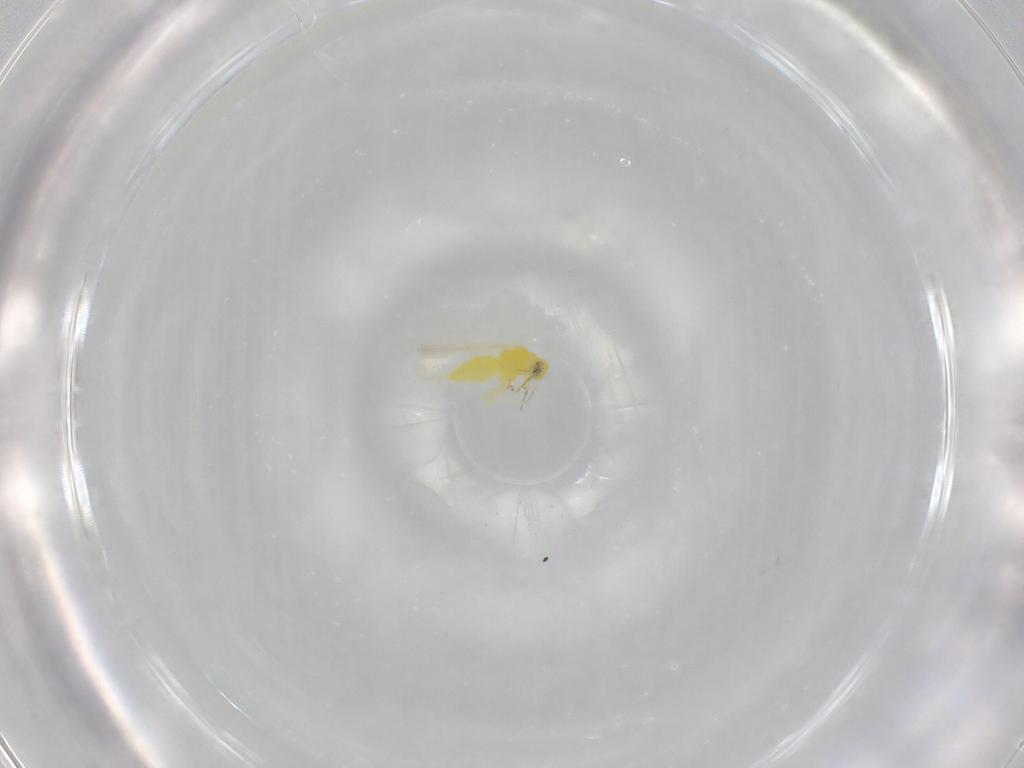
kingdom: Animalia
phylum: Arthropoda
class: Insecta
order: Hemiptera
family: Aleyrodidae
